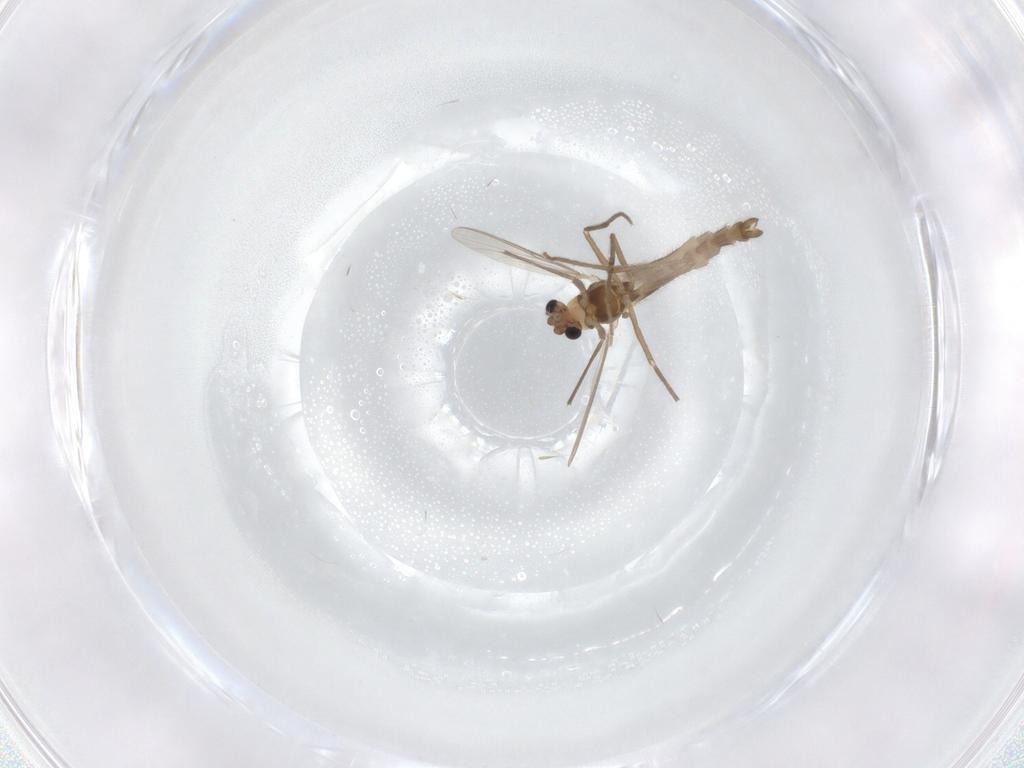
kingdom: Animalia
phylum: Arthropoda
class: Insecta
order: Diptera
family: Chironomidae
